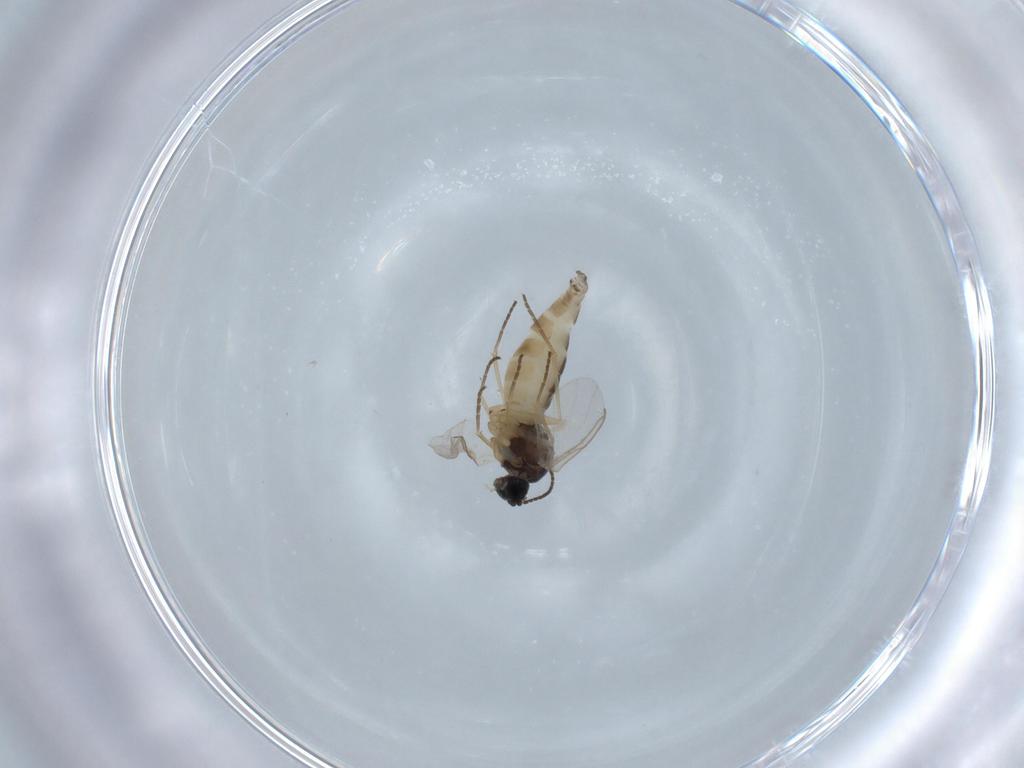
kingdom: Animalia
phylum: Arthropoda
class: Insecta
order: Diptera
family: Sciaridae
